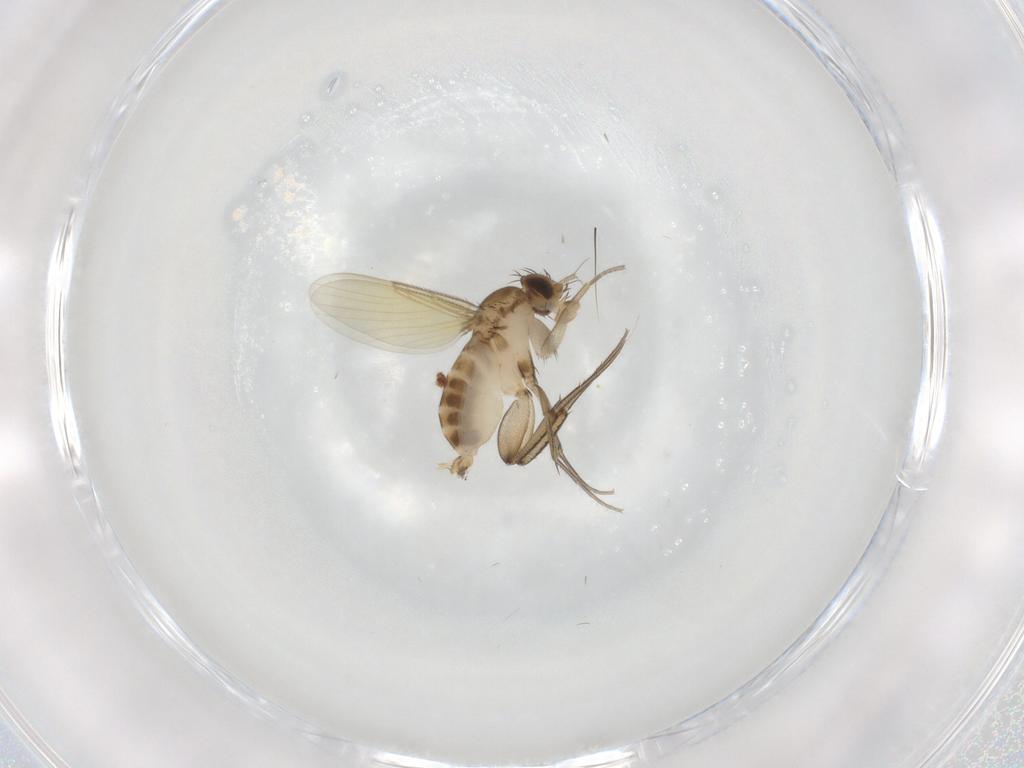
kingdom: Animalia
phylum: Arthropoda
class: Insecta
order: Diptera
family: Phoridae
